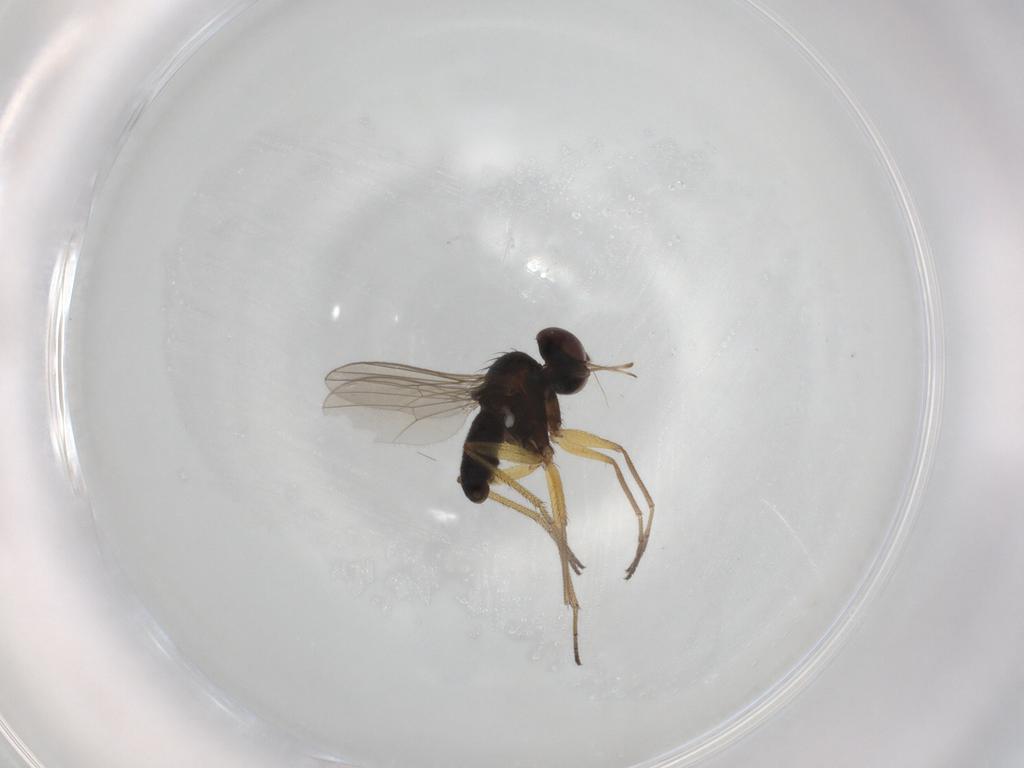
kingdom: Animalia
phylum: Arthropoda
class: Insecta
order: Diptera
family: Dolichopodidae
